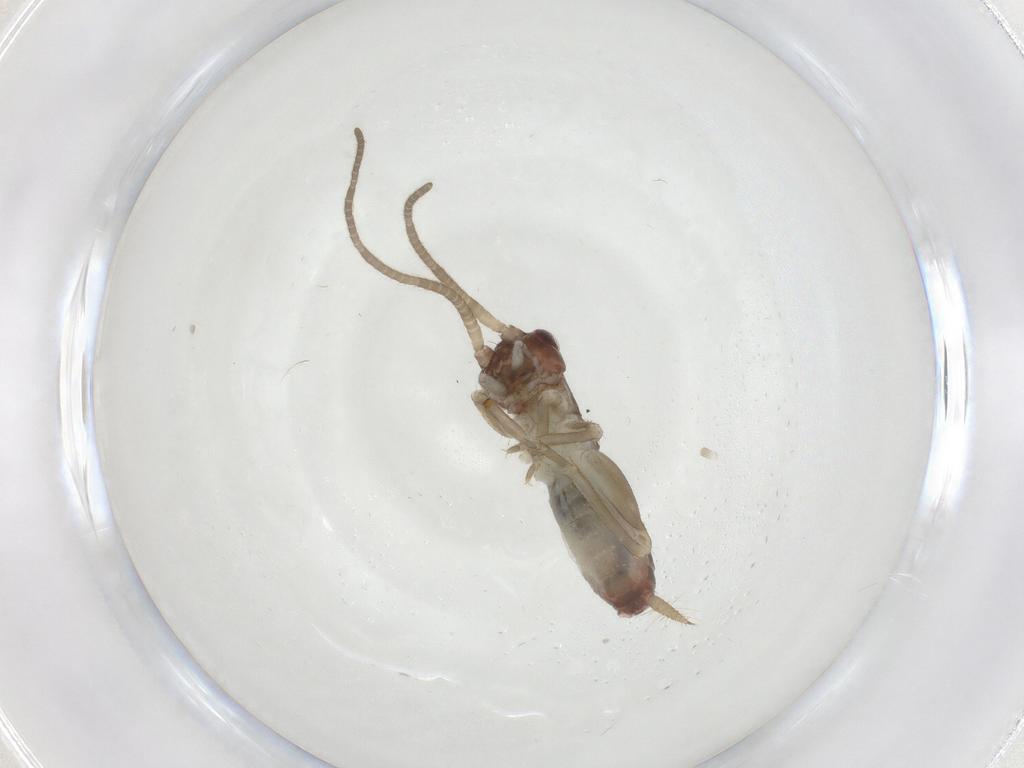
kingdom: Animalia
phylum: Arthropoda
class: Insecta
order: Orthoptera
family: Gryllidae
